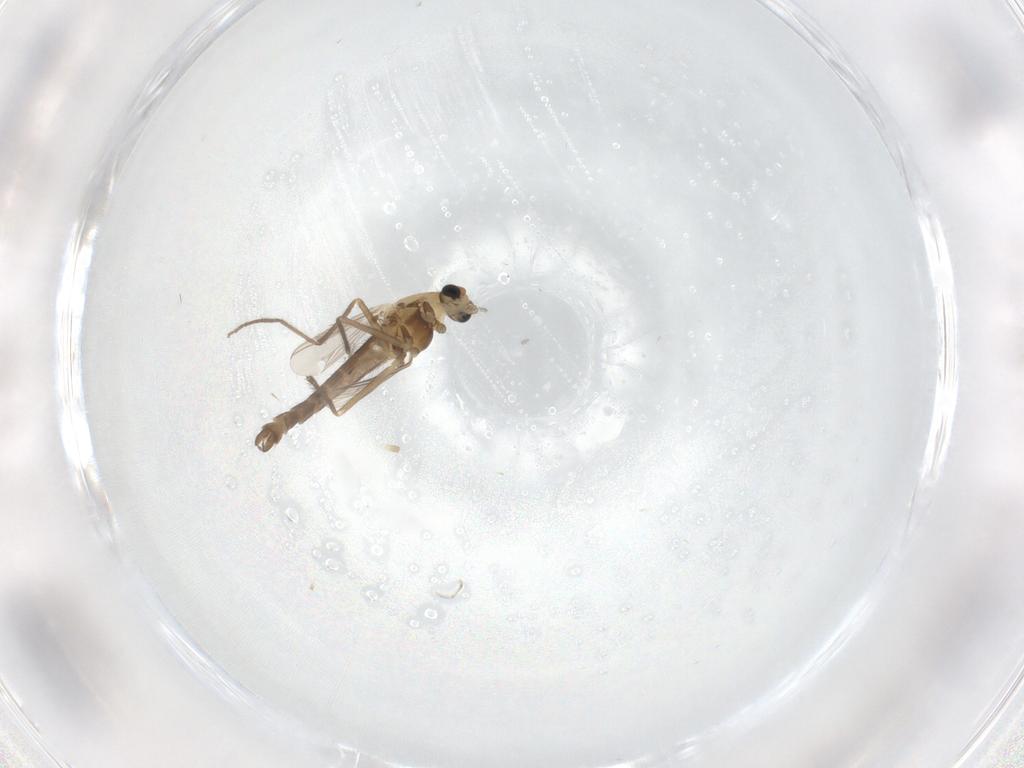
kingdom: Animalia
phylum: Arthropoda
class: Insecta
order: Diptera
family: Chironomidae
